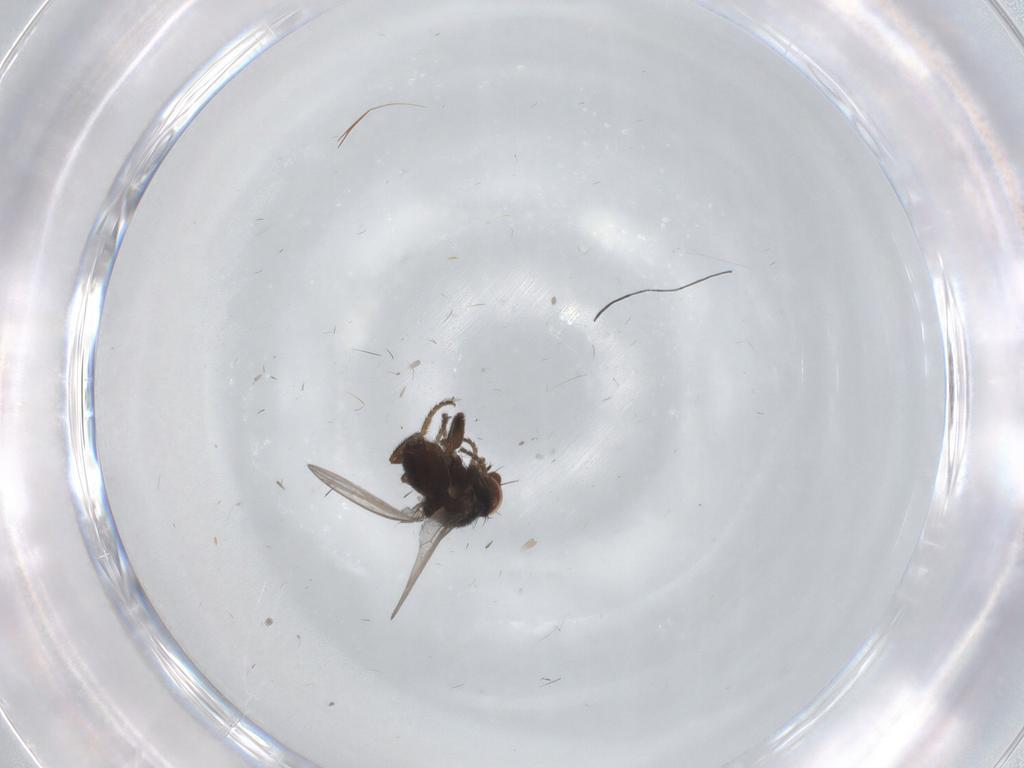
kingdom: Animalia
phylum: Arthropoda
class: Insecta
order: Diptera
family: Milichiidae
